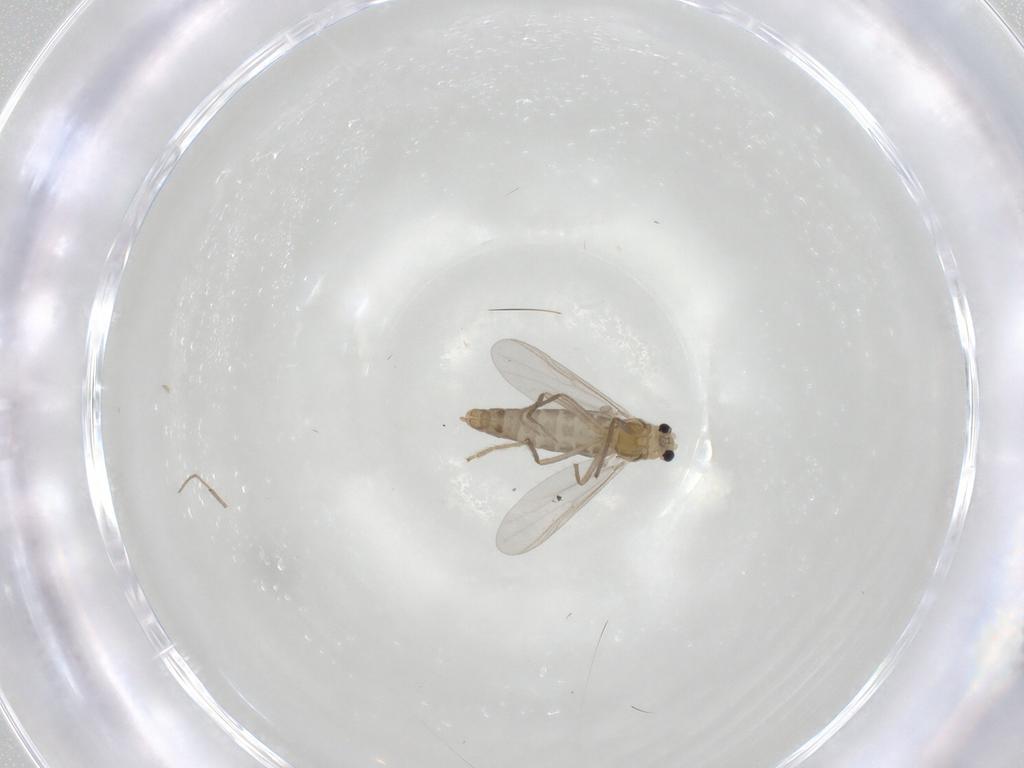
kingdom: Animalia
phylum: Arthropoda
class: Insecta
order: Diptera
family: Chironomidae
